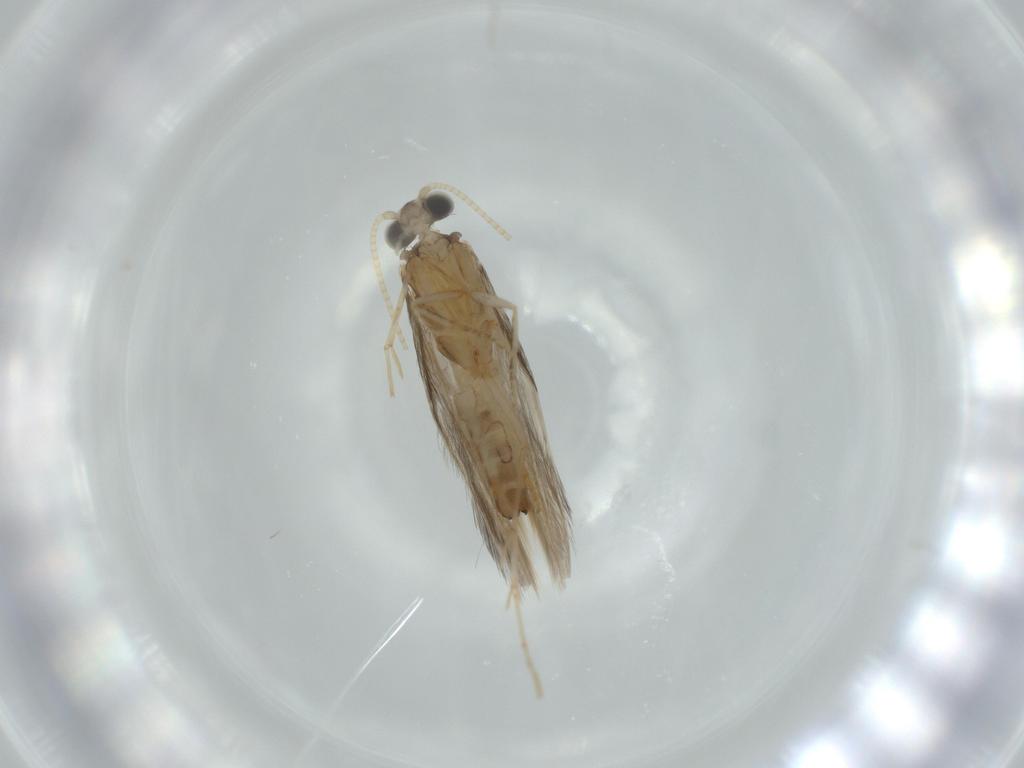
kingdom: Animalia
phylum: Arthropoda
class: Insecta
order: Trichoptera
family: Hydroptilidae
